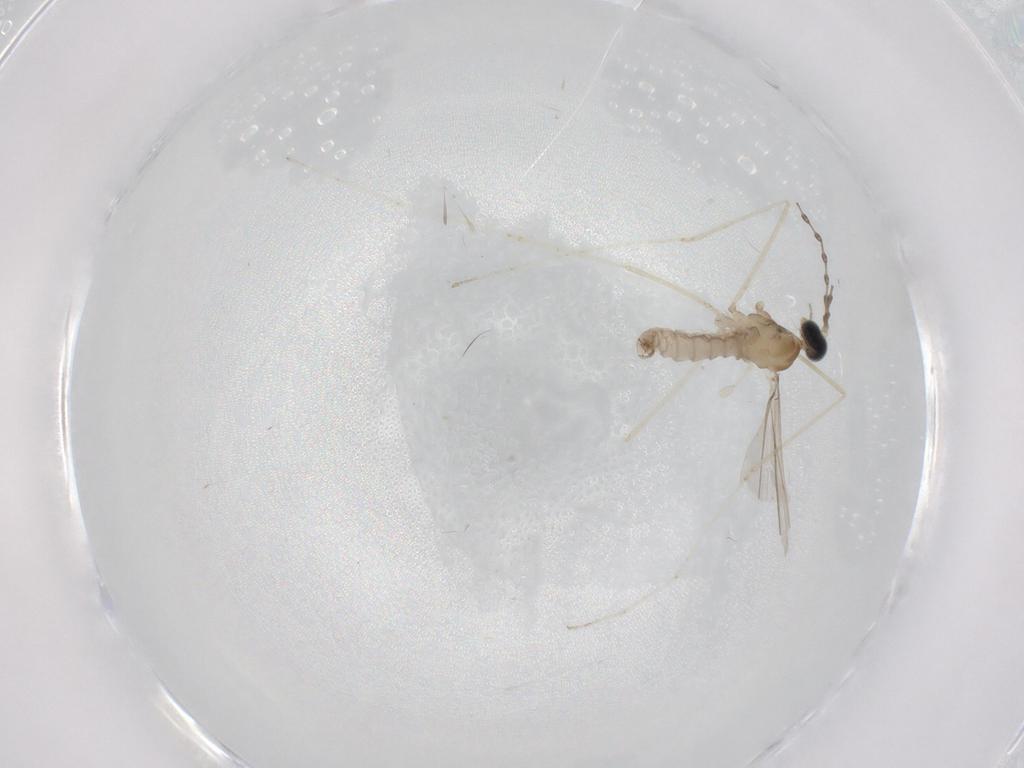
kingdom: Animalia
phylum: Arthropoda
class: Insecta
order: Diptera
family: Cecidomyiidae
